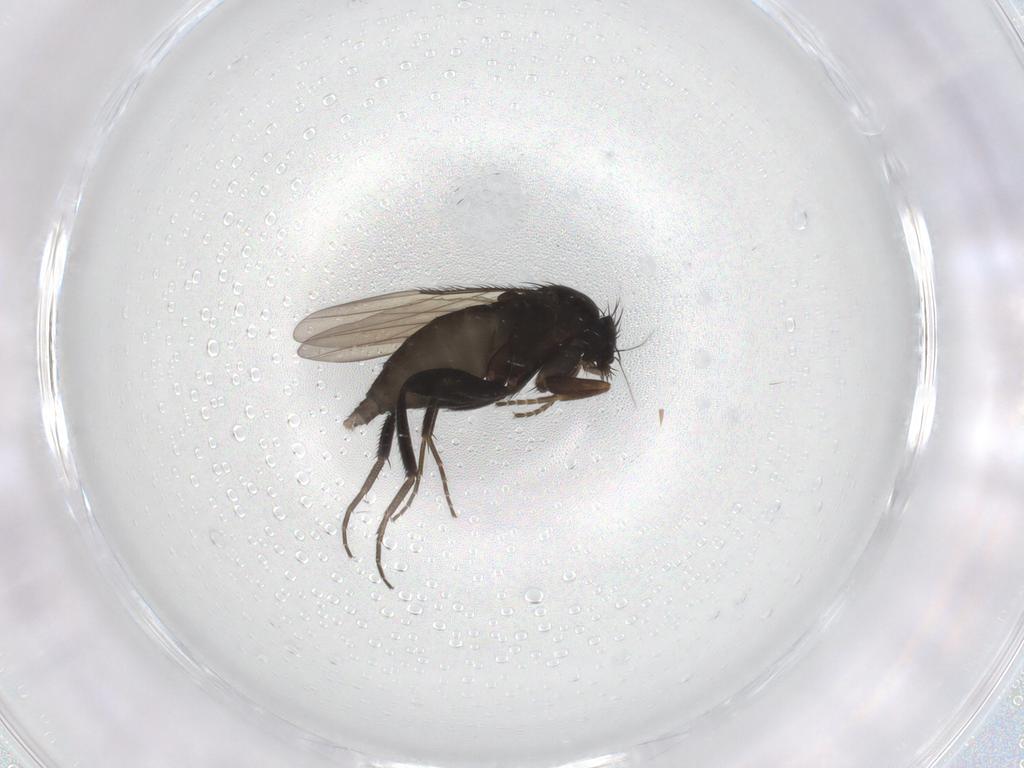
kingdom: Animalia
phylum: Arthropoda
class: Insecta
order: Diptera
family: Phoridae
